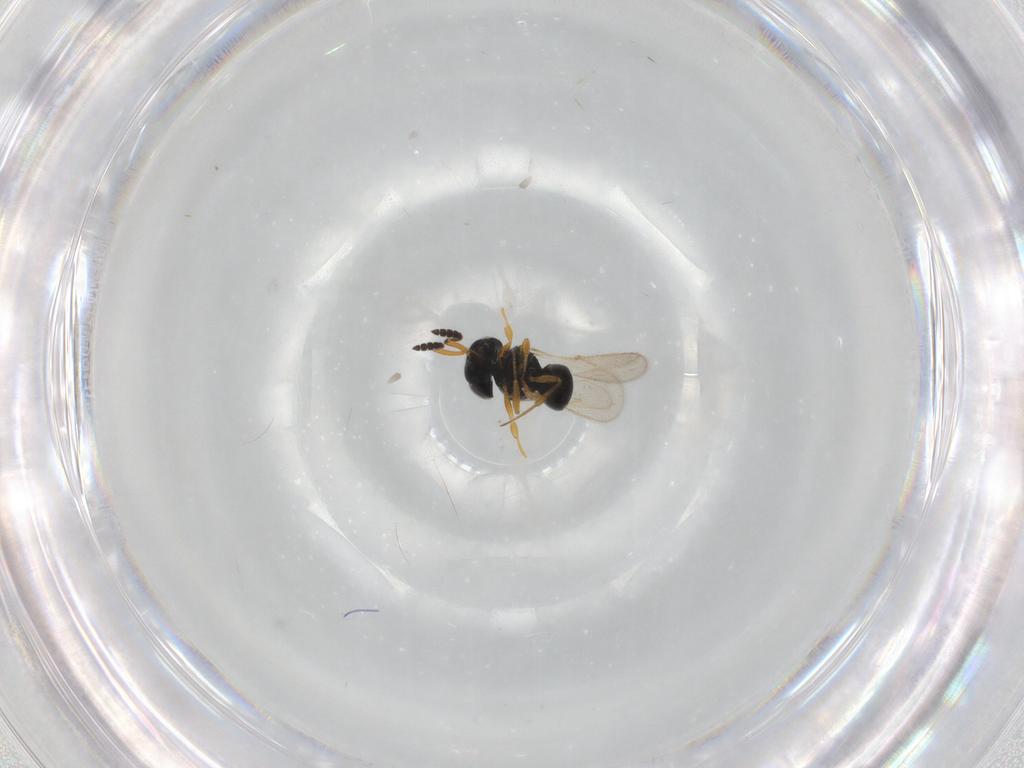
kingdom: Animalia
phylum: Arthropoda
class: Insecta
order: Hymenoptera
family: Scelionidae
